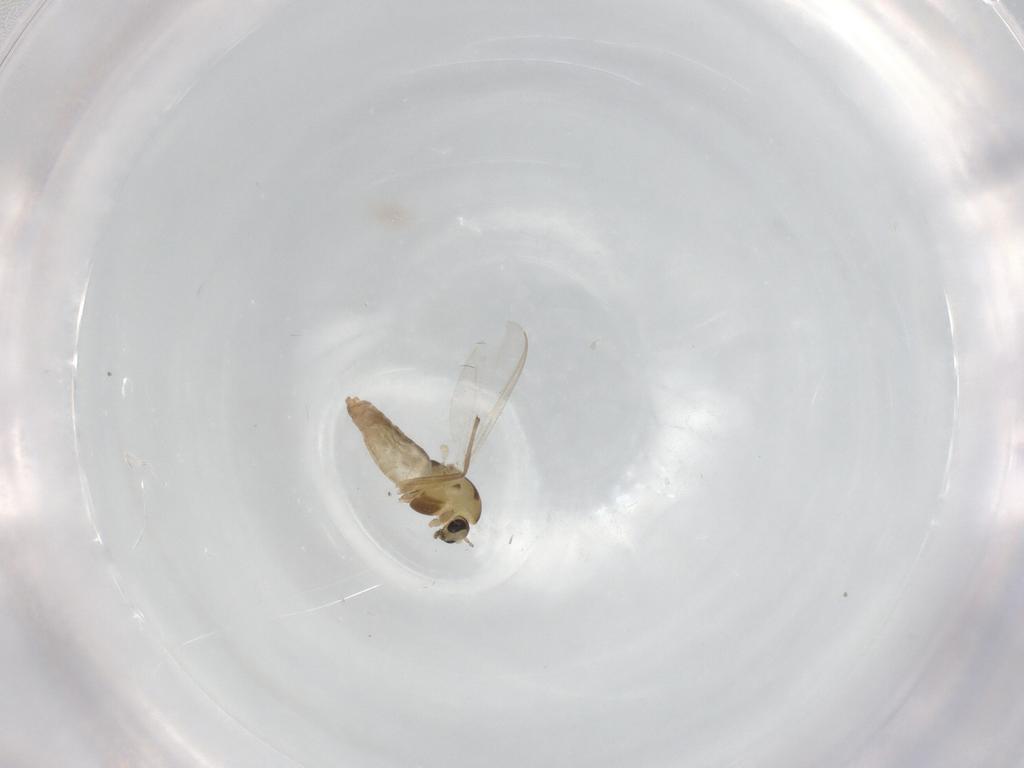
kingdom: Animalia
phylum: Arthropoda
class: Insecta
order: Diptera
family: Chironomidae
